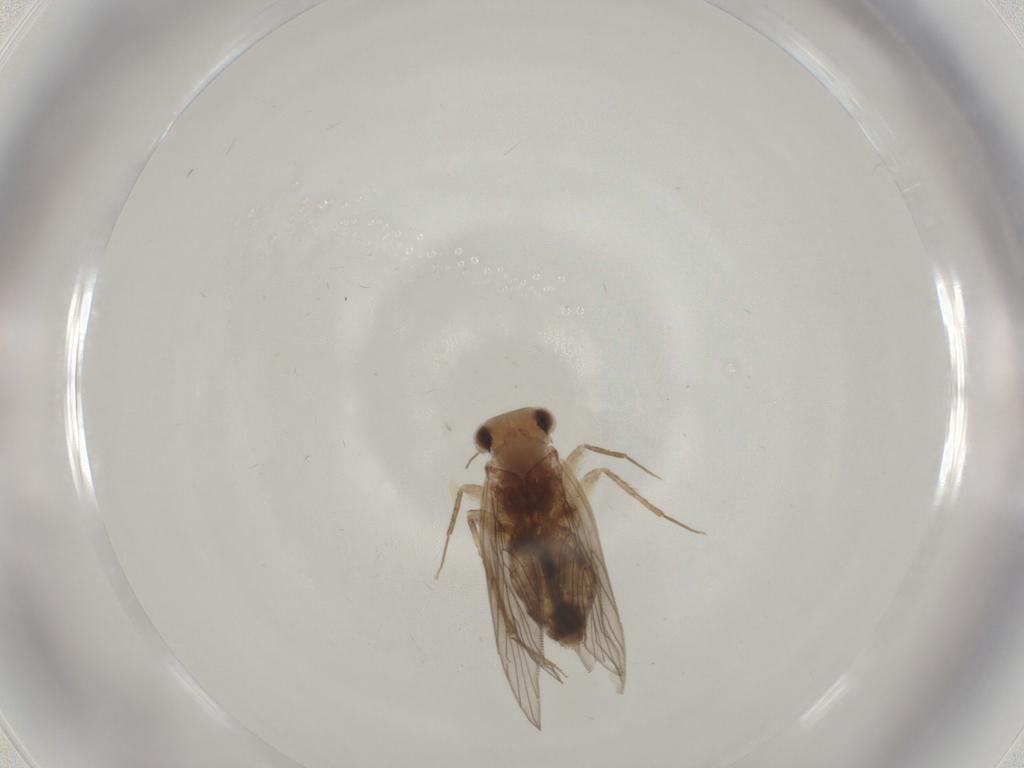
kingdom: Animalia
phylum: Arthropoda
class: Insecta
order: Psocodea
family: Lepidopsocidae
